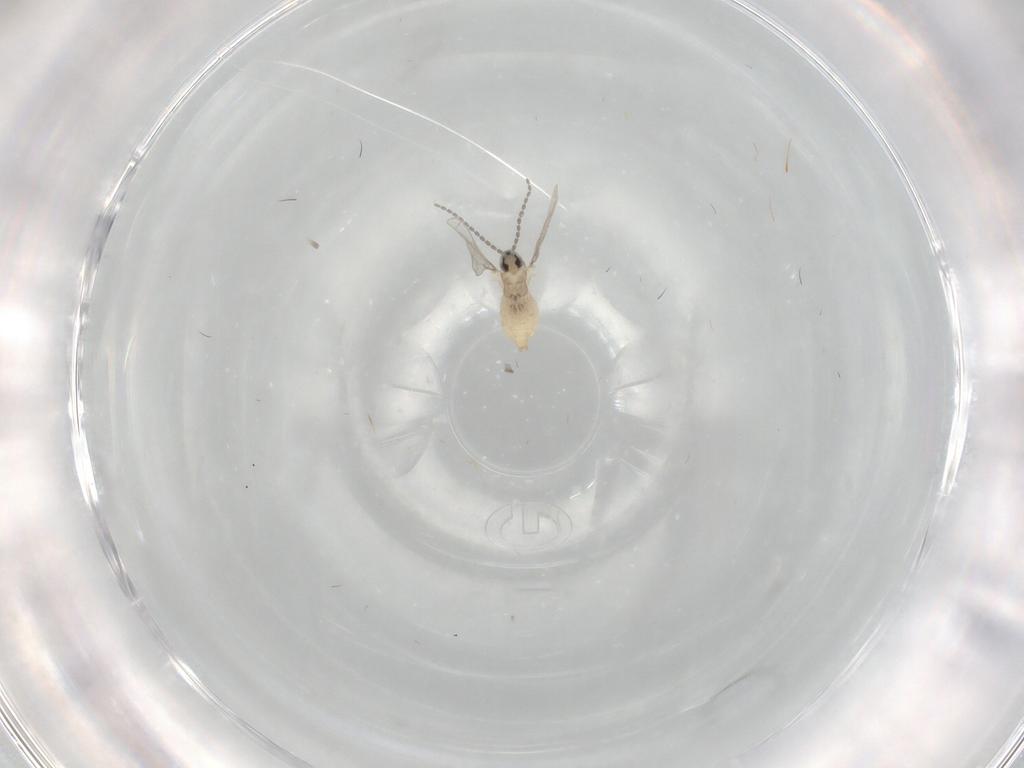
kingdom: Animalia
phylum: Arthropoda
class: Insecta
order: Diptera
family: Cecidomyiidae
